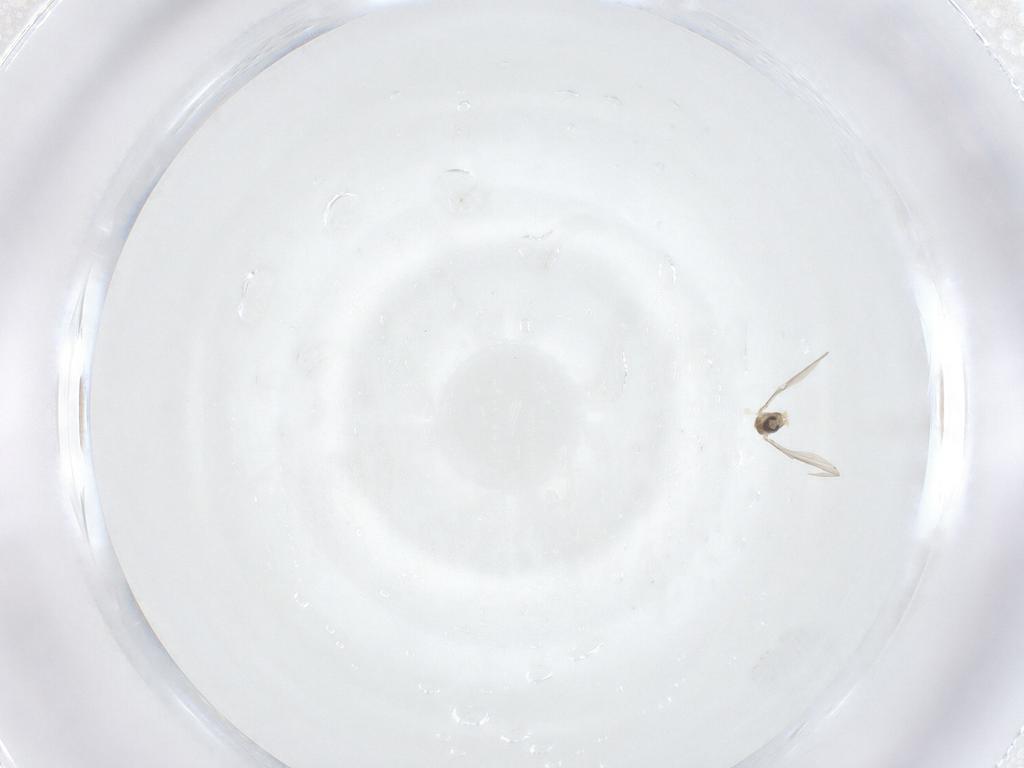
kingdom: Animalia
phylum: Arthropoda
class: Insecta
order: Diptera
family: Cecidomyiidae
